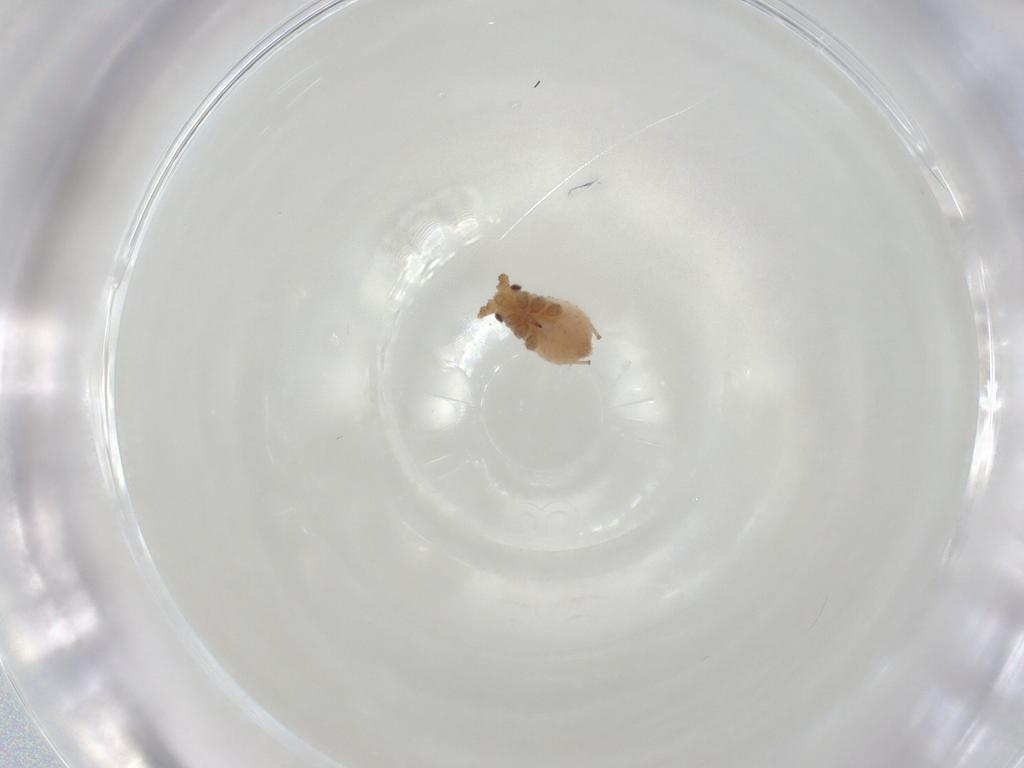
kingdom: Animalia
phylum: Arthropoda
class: Insecta
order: Hemiptera
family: Aphididae
